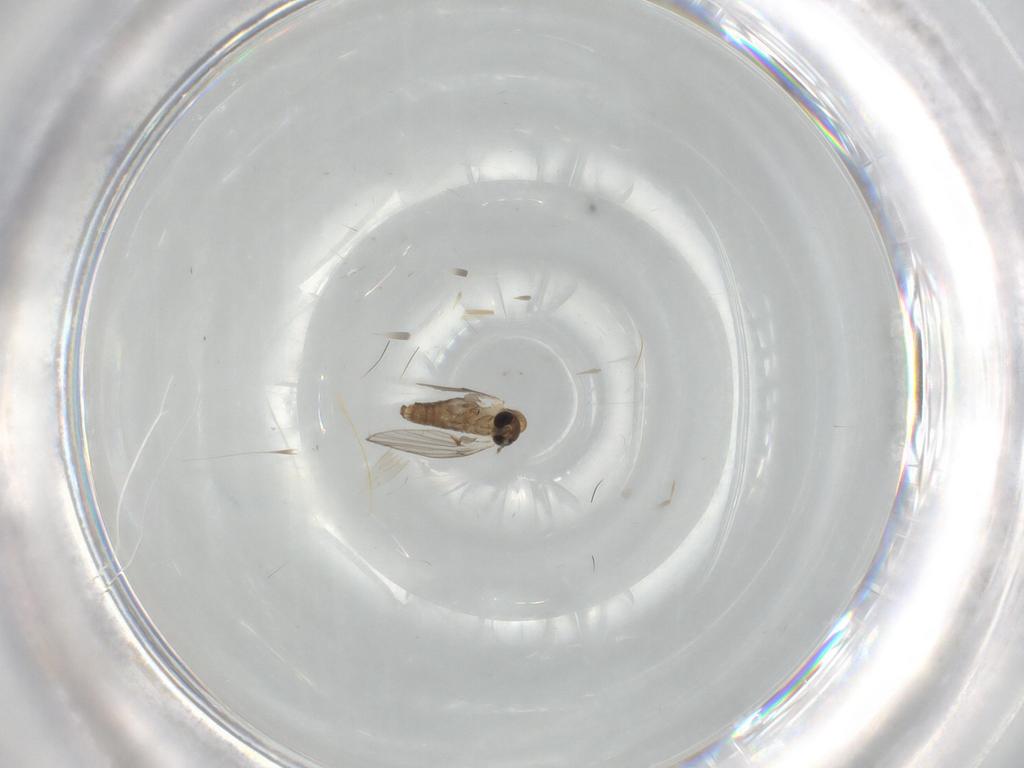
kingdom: Animalia
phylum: Arthropoda
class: Insecta
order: Diptera
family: Psychodidae
